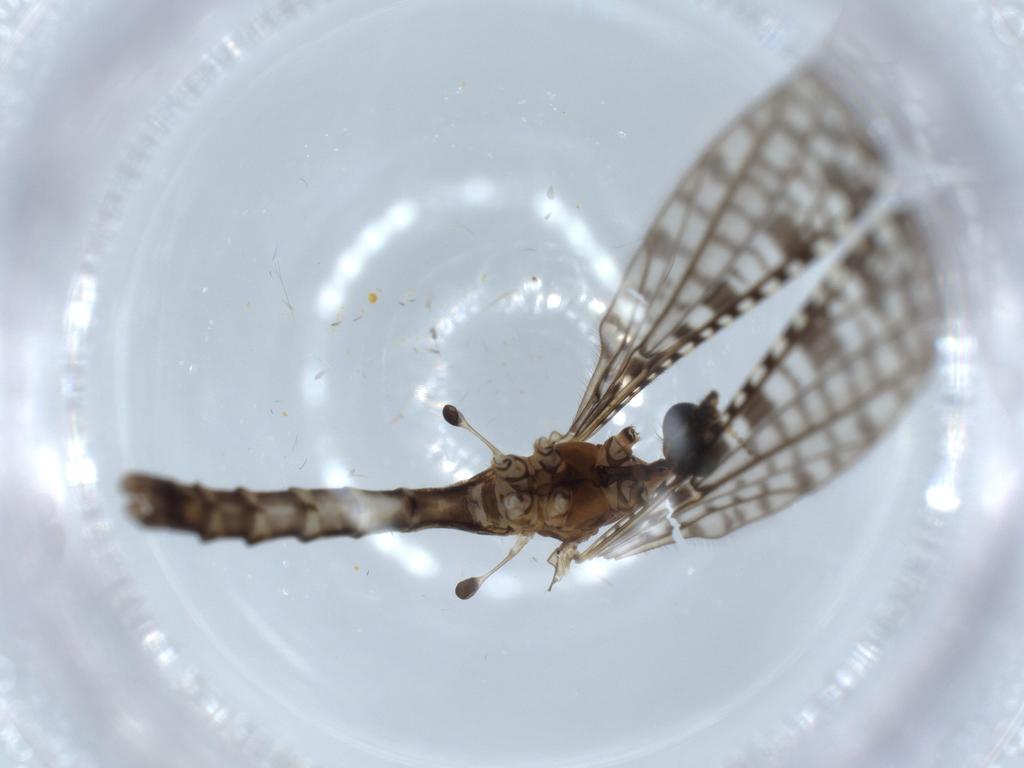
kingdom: Animalia
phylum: Arthropoda
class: Insecta
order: Diptera
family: Limoniidae
